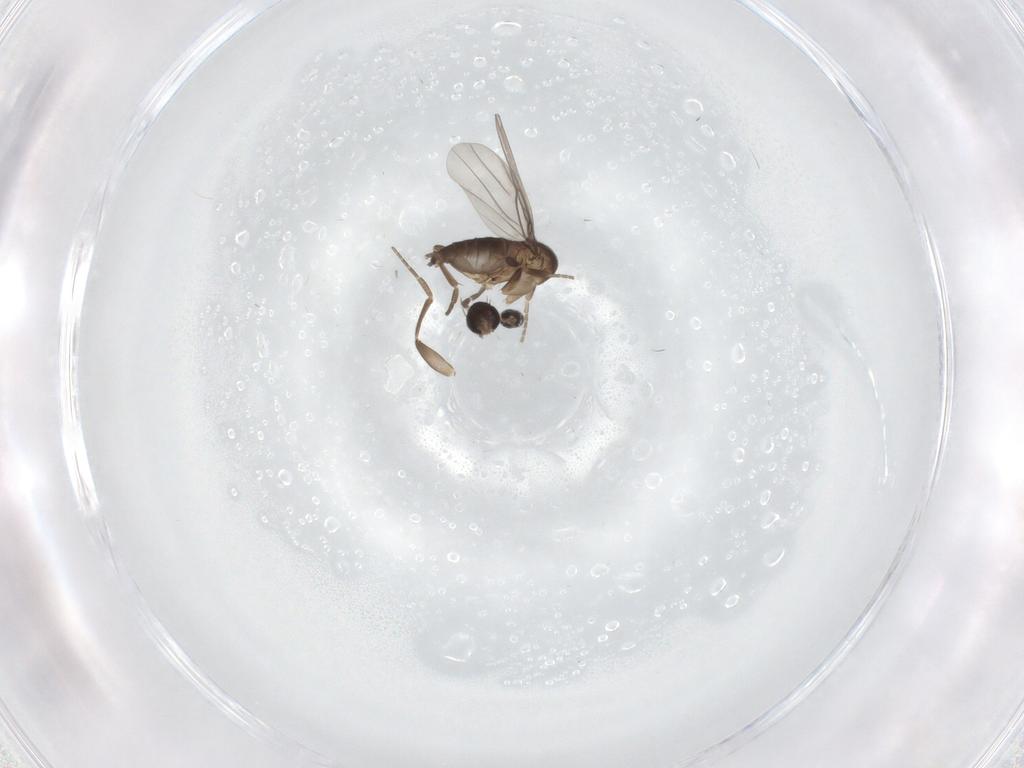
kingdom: Animalia
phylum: Arthropoda
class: Insecta
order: Diptera
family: Cecidomyiidae
